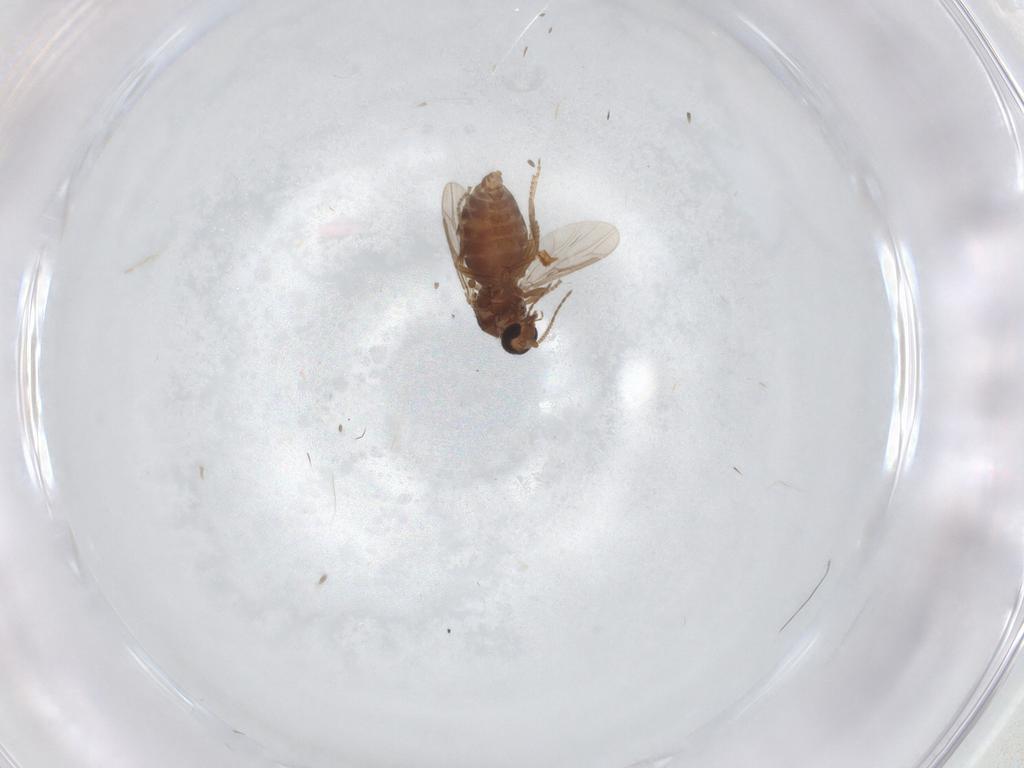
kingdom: Animalia
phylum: Arthropoda
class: Insecta
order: Diptera
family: Ceratopogonidae
